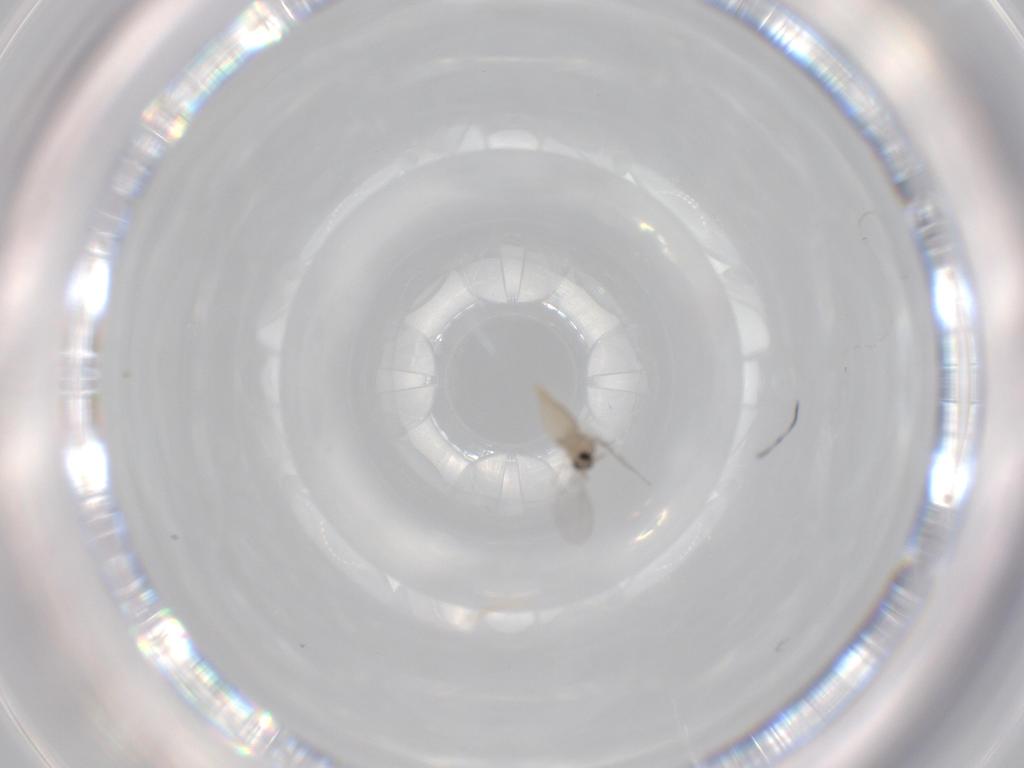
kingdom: Animalia
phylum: Arthropoda
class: Insecta
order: Diptera
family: Cecidomyiidae
